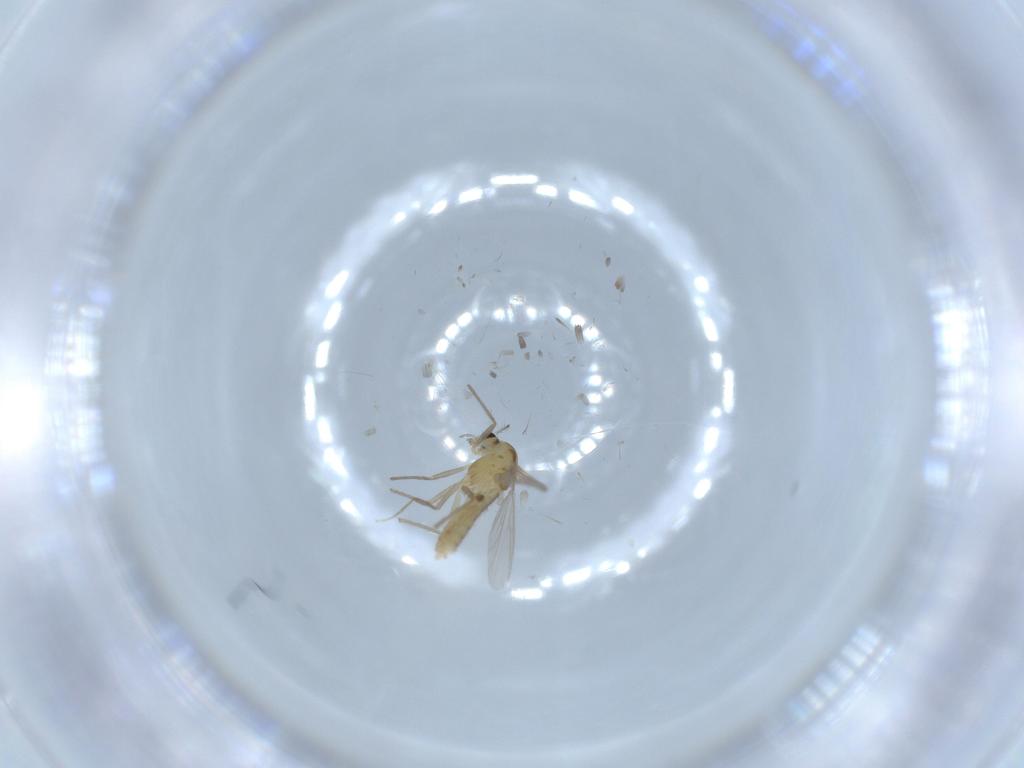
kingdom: Animalia
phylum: Arthropoda
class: Insecta
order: Diptera
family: Chironomidae
